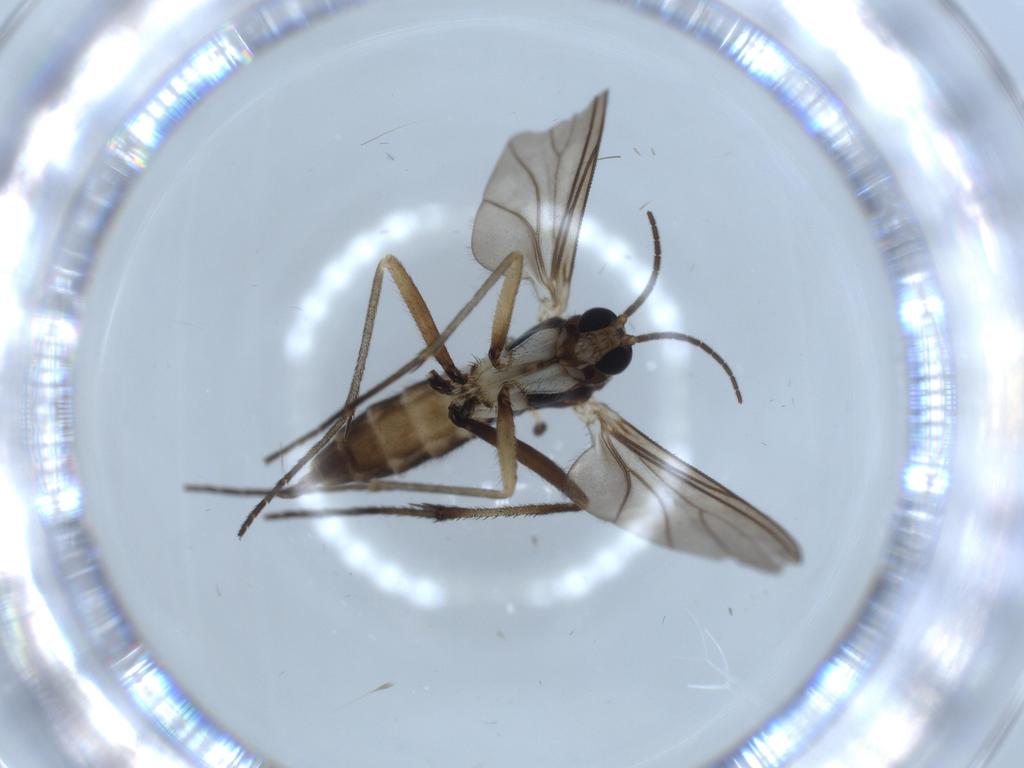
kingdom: Animalia
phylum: Arthropoda
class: Insecta
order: Diptera
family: Sciaridae
